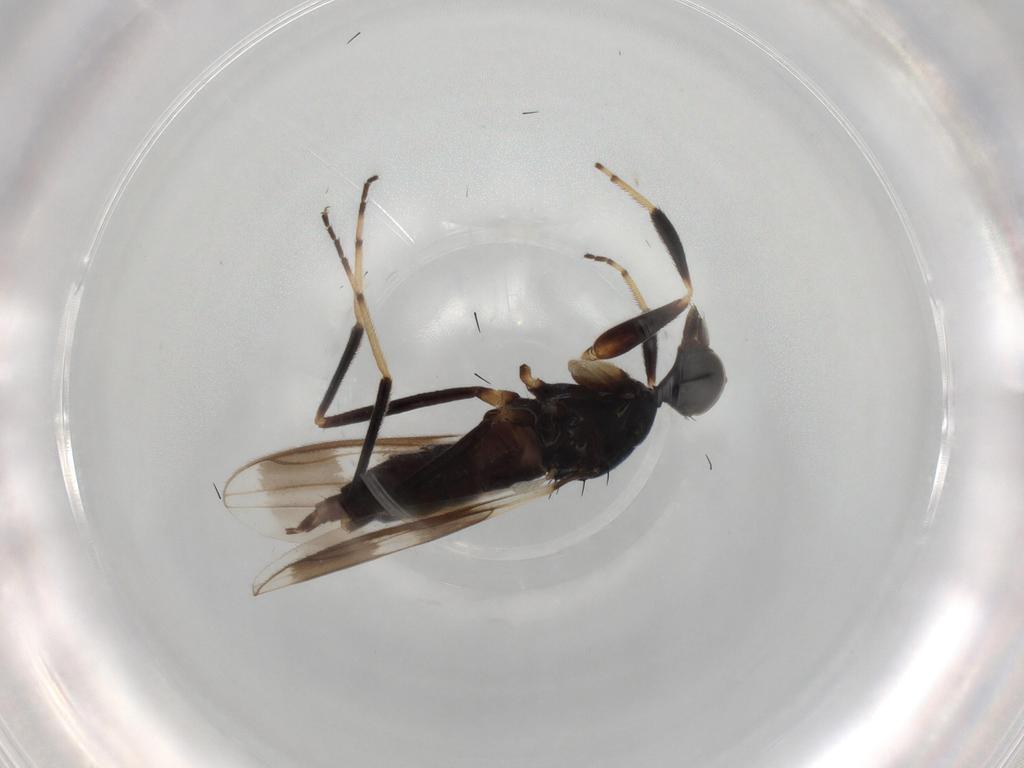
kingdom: Animalia
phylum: Arthropoda
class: Insecta
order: Diptera
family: Hybotidae
